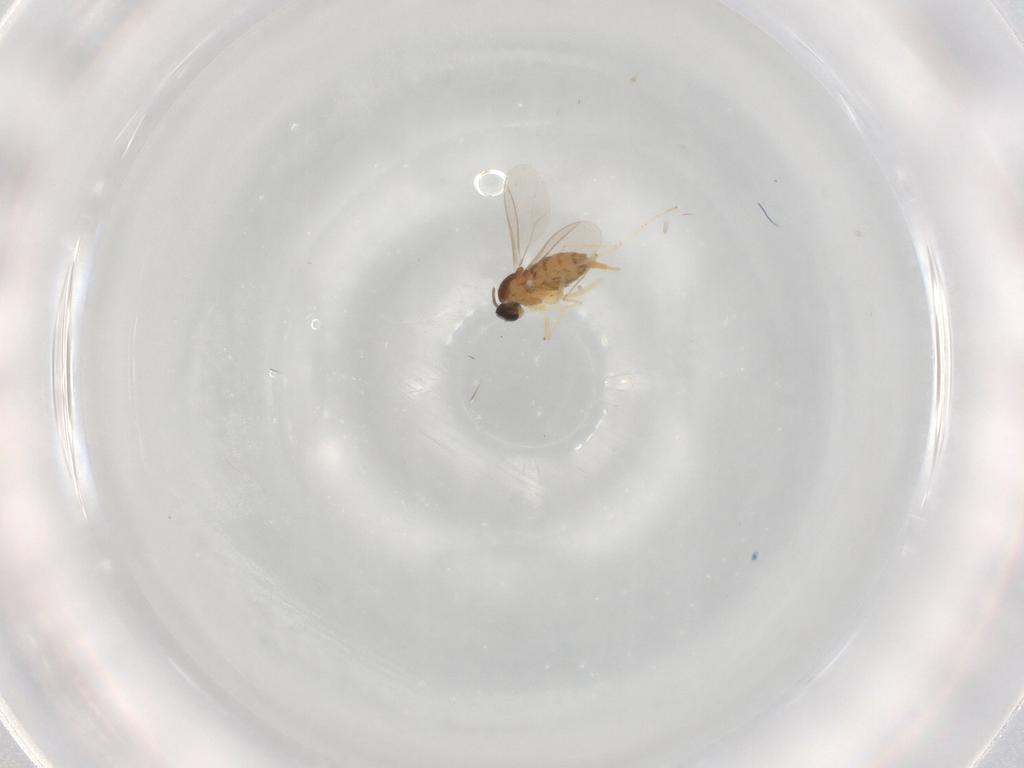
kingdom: Animalia
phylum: Arthropoda
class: Insecta
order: Diptera
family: Cecidomyiidae
